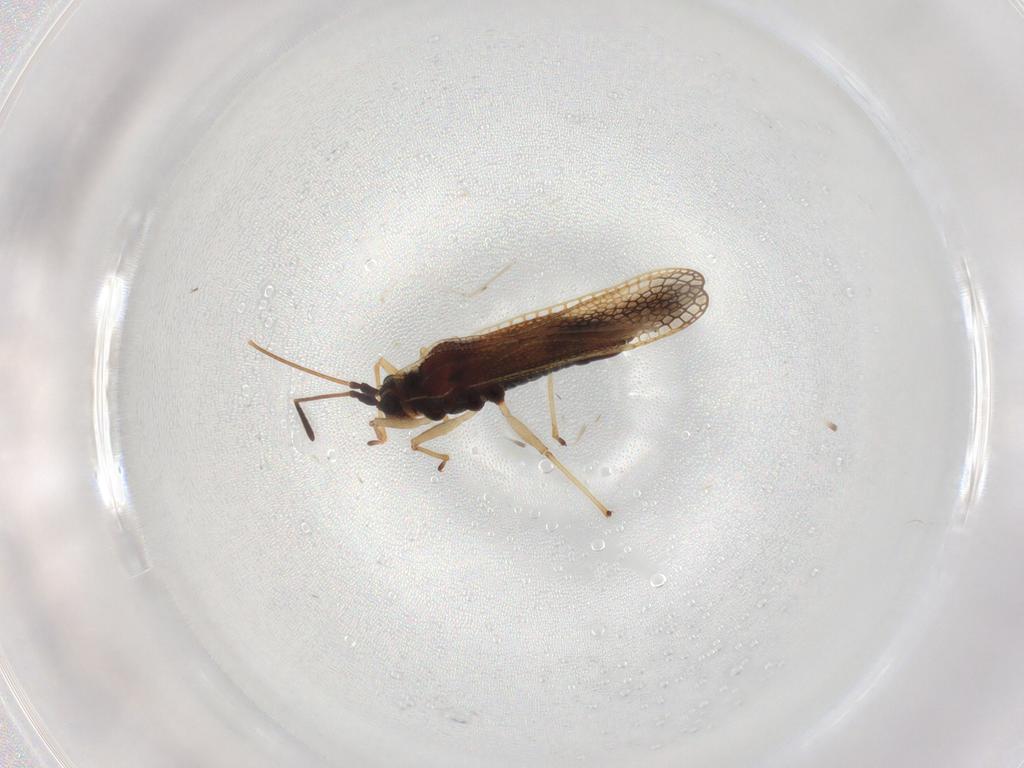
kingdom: Animalia
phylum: Arthropoda
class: Insecta
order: Hemiptera
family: Tingidae
